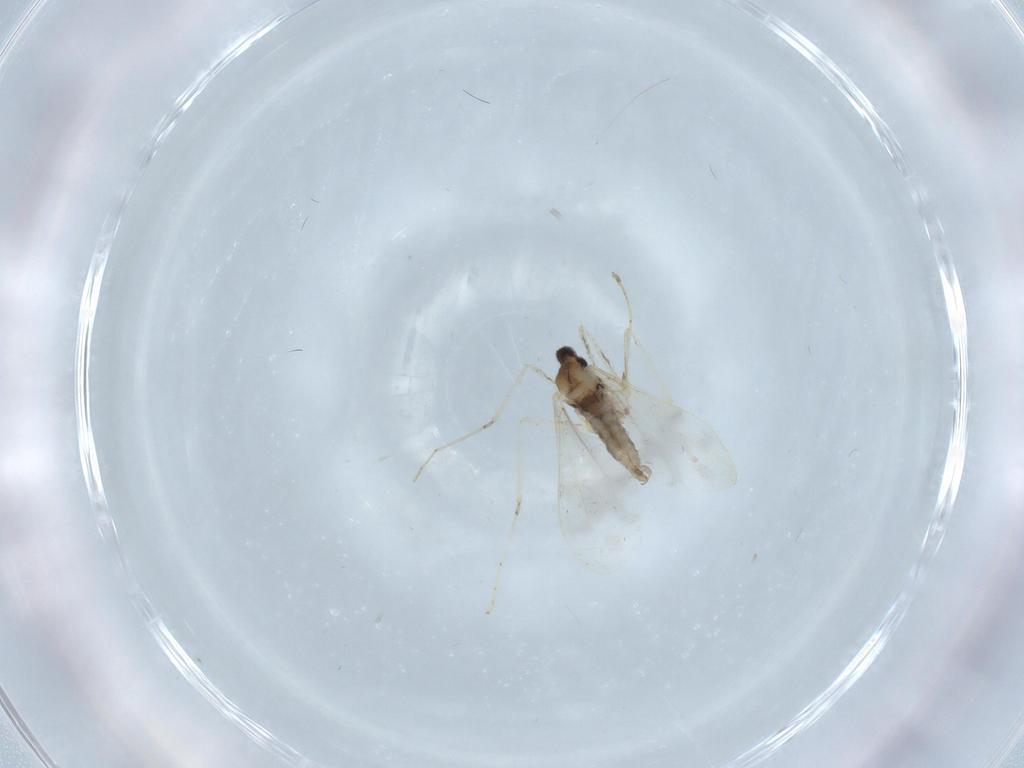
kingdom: Animalia
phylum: Arthropoda
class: Insecta
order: Diptera
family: Cecidomyiidae
